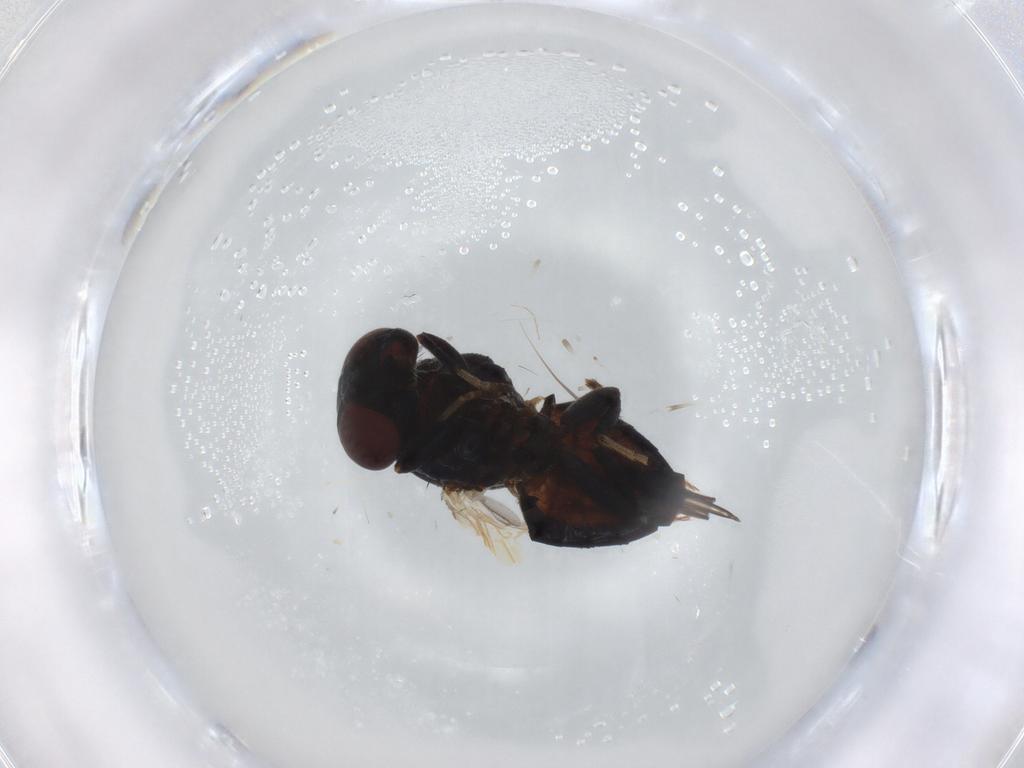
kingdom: Animalia
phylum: Arthropoda
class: Insecta
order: Diptera
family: Lonchaeidae
